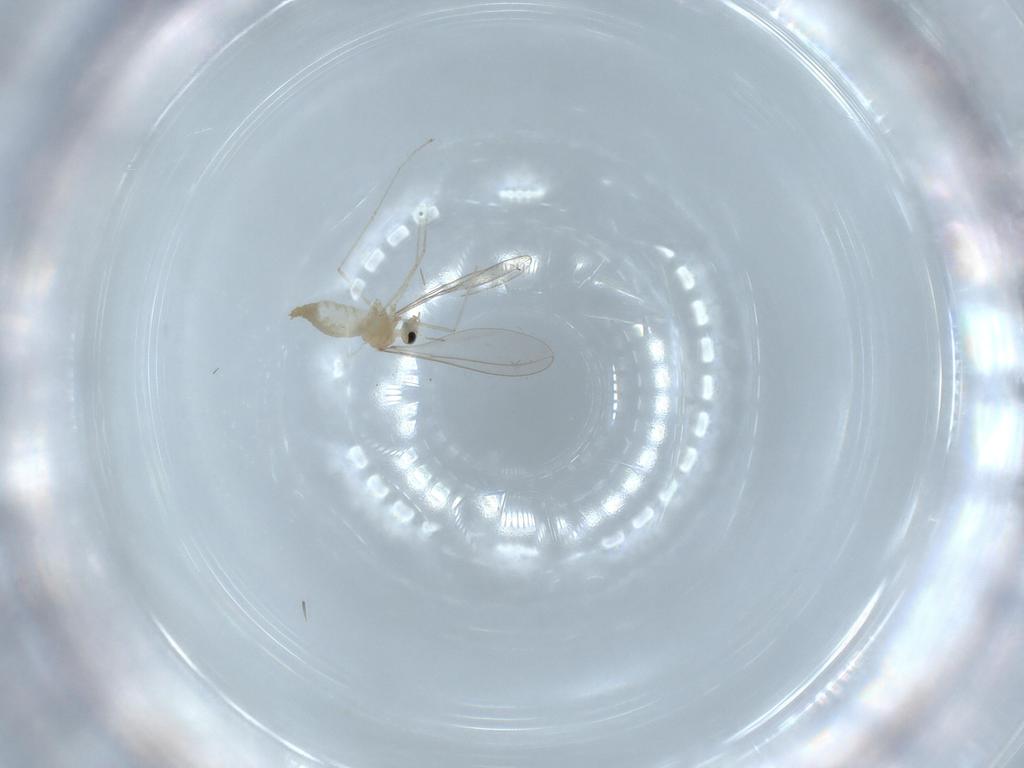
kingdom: Animalia
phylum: Arthropoda
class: Insecta
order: Diptera
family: Cecidomyiidae
